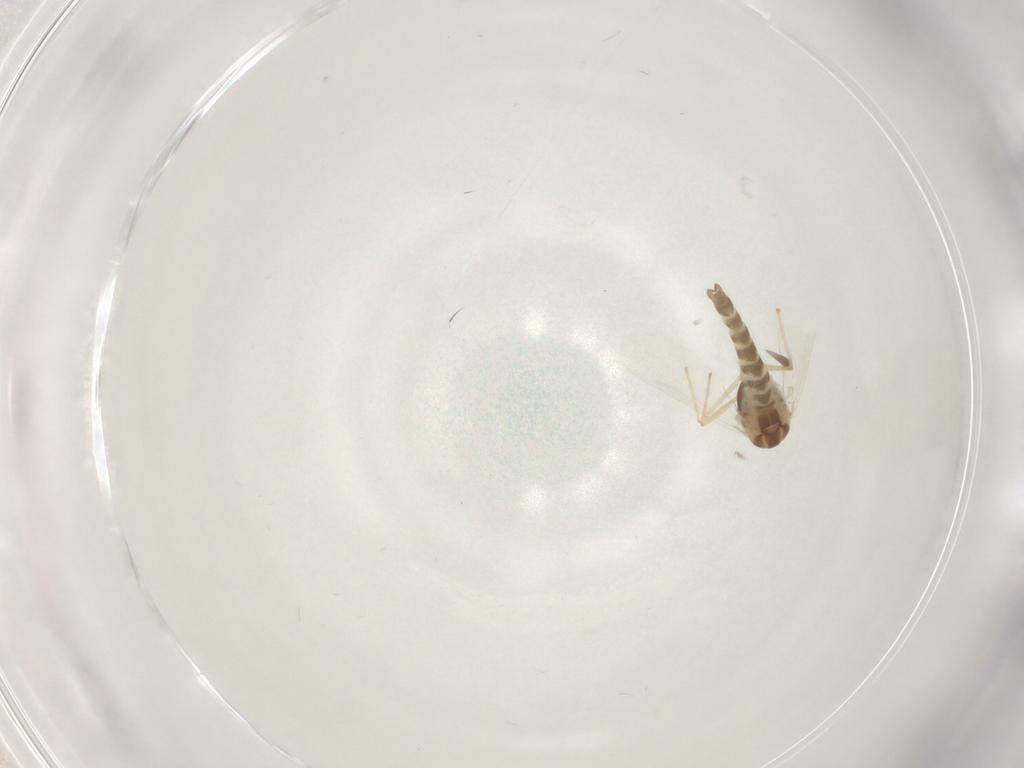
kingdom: Animalia
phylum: Arthropoda
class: Insecta
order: Diptera
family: Chironomidae
